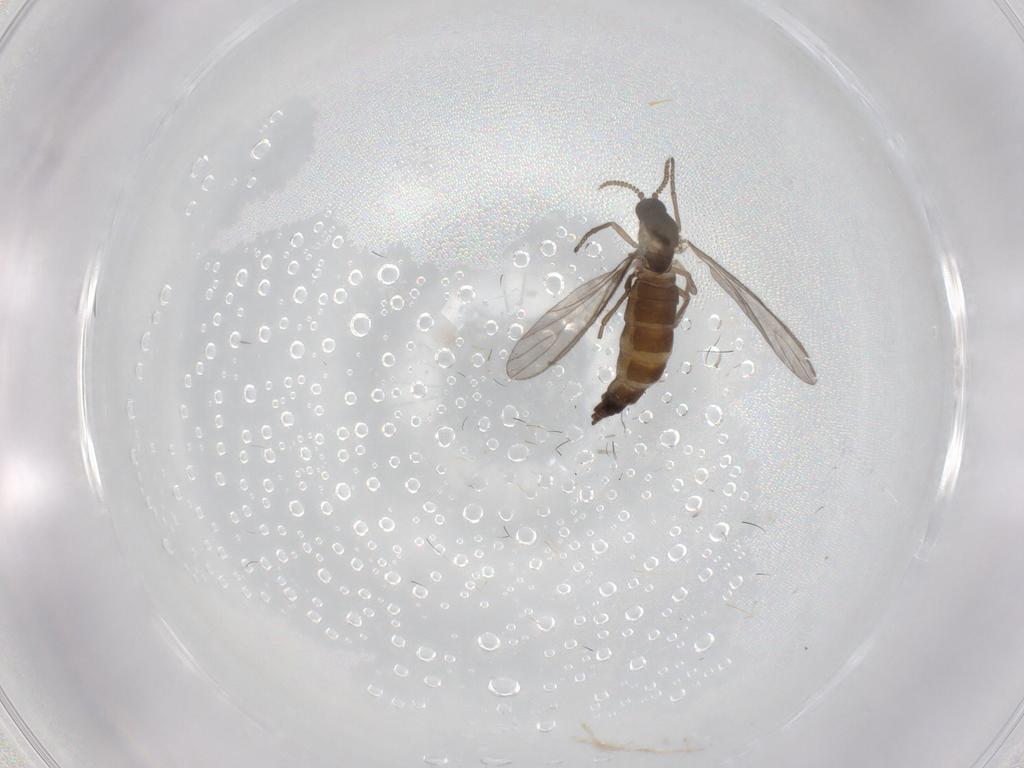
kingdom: Animalia
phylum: Arthropoda
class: Insecta
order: Diptera
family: Sciaridae
